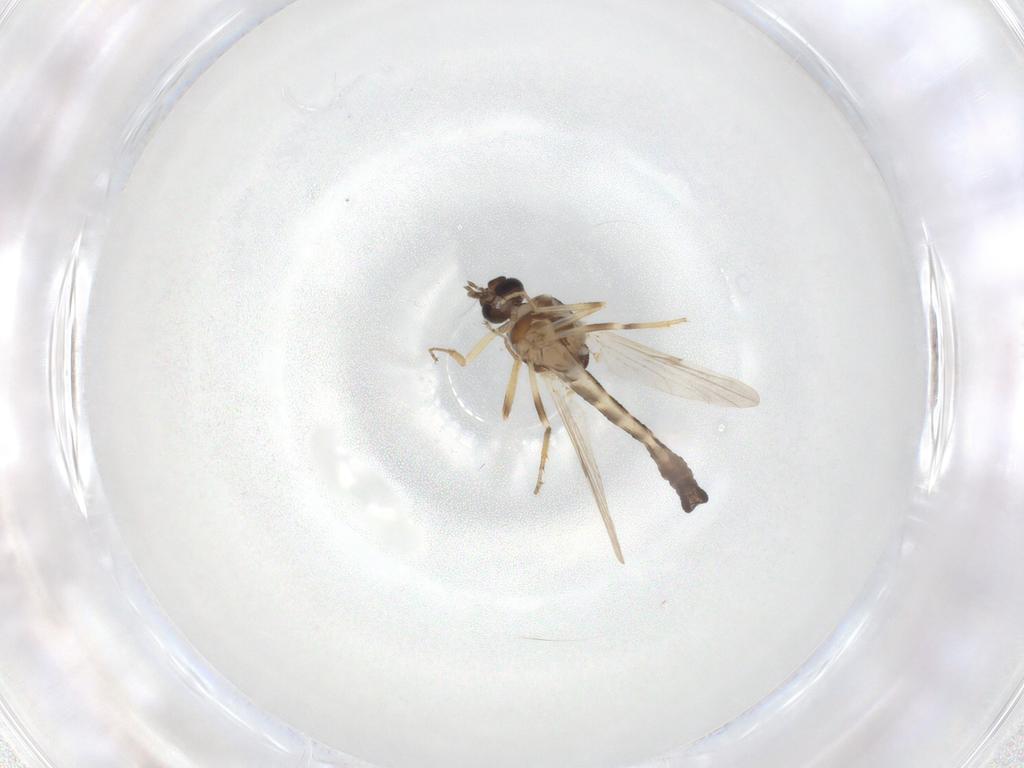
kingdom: Animalia
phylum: Arthropoda
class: Insecta
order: Diptera
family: Ceratopogonidae
